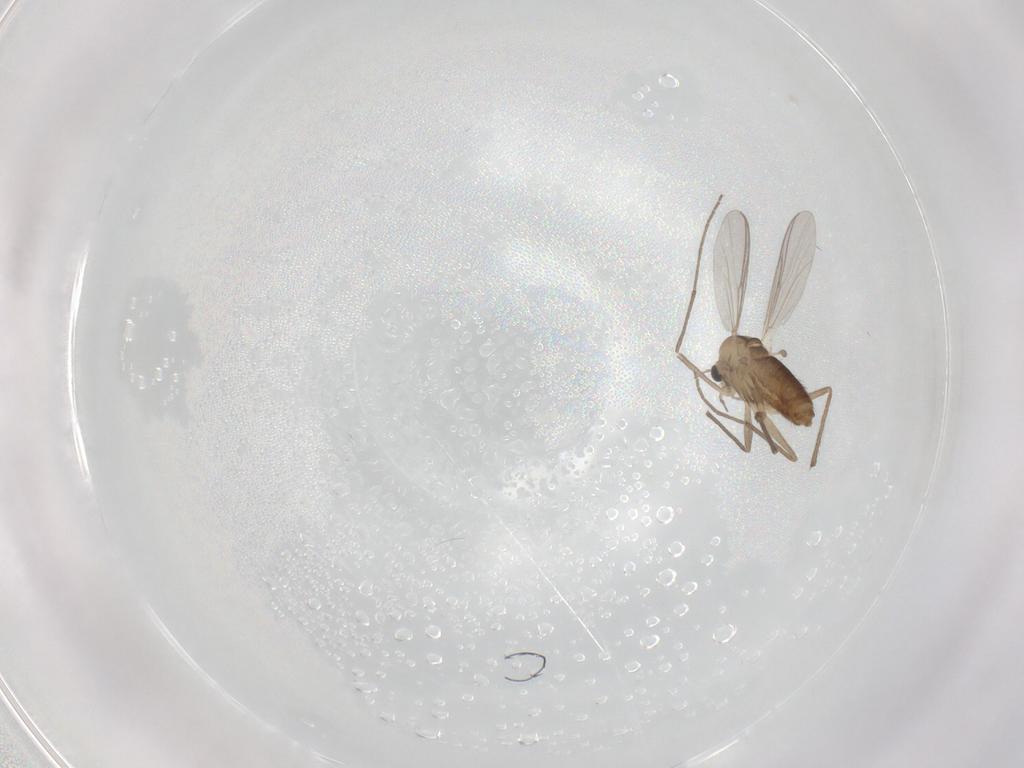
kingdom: Animalia
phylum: Arthropoda
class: Insecta
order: Diptera
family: Chironomidae
